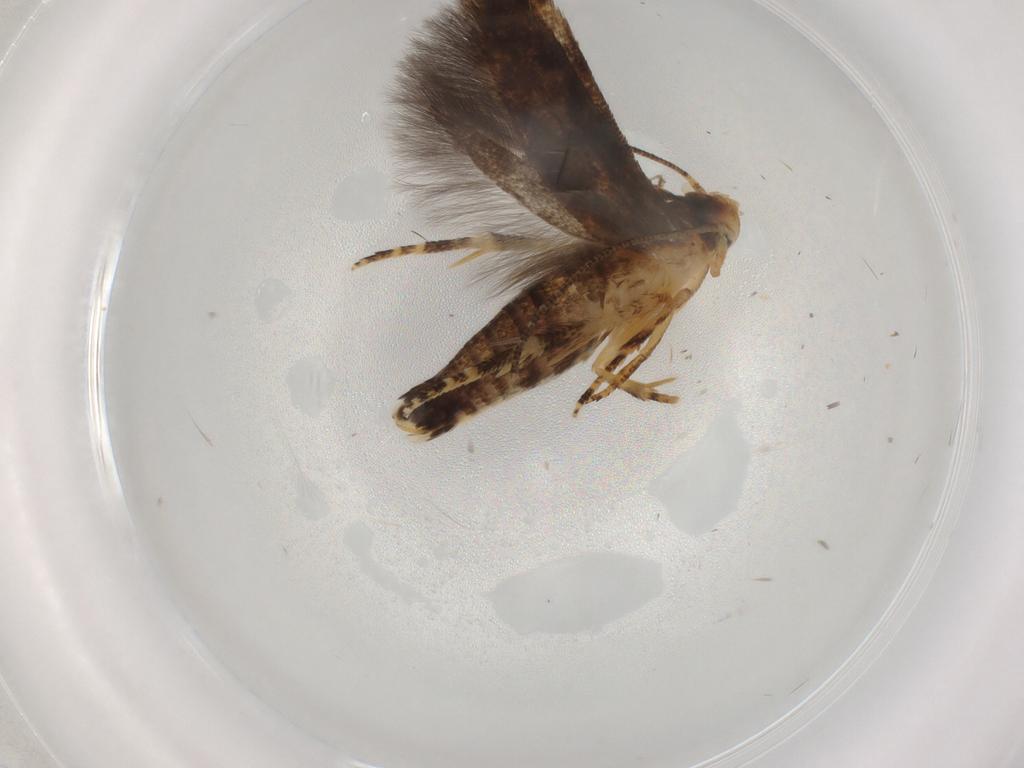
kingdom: Animalia
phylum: Arthropoda
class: Insecta
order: Lepidoptera
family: Momphidae
